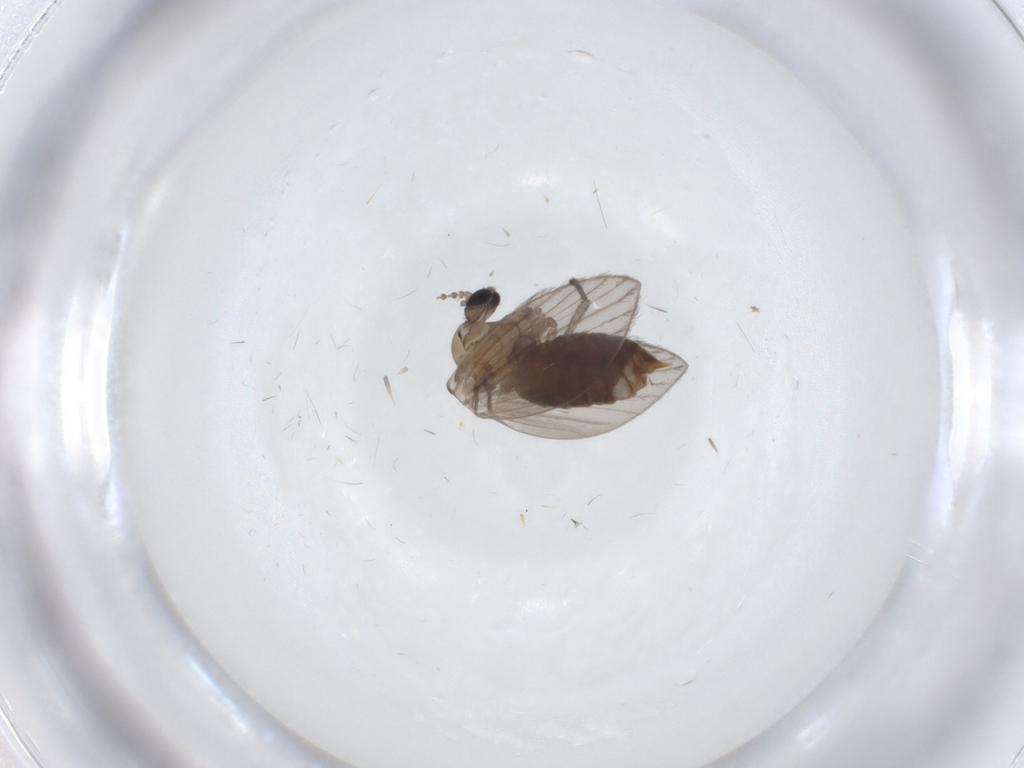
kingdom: Animalia
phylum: Arthropoda
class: Insecta
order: Diptera
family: Psychodidae
